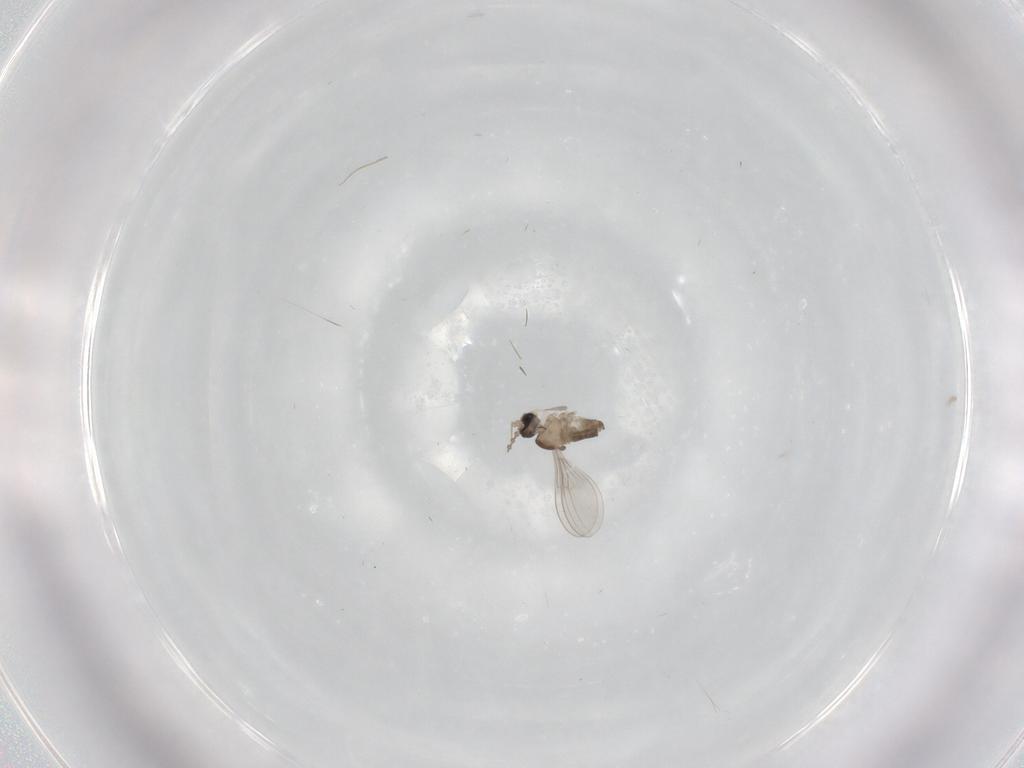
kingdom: Animalia
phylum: Arthropoda
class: Insecta
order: Diptera
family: Cecidomyiidae
